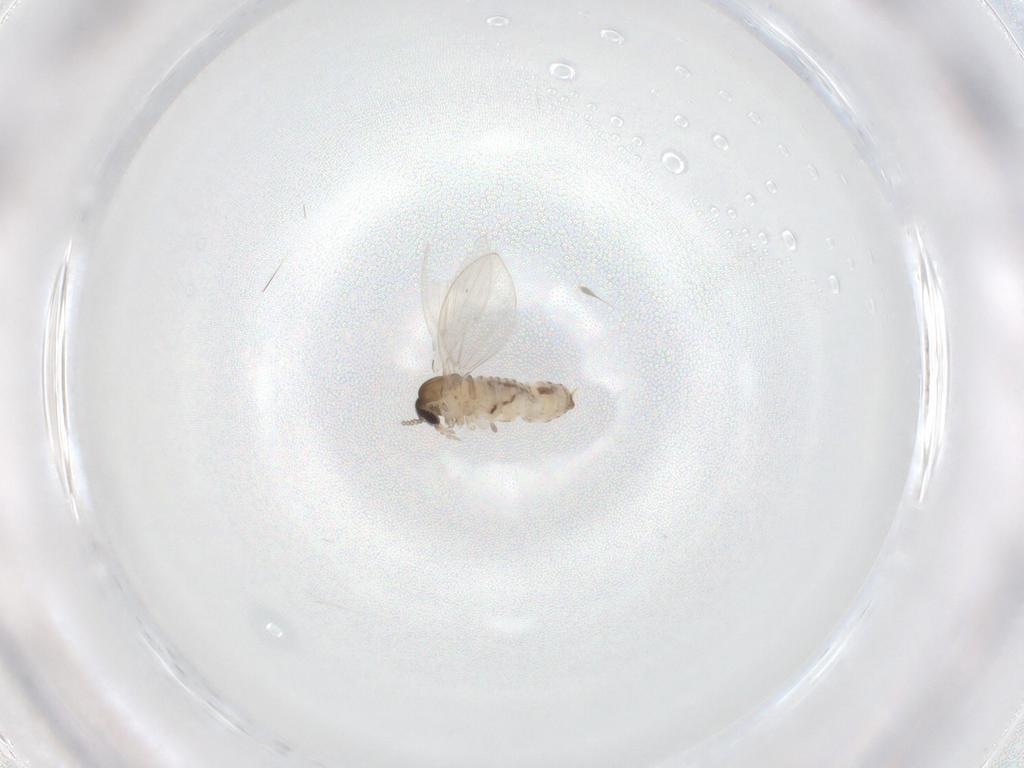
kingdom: Animalia
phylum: Arthropoda
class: Insecta
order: Diptera
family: Psychodidae
